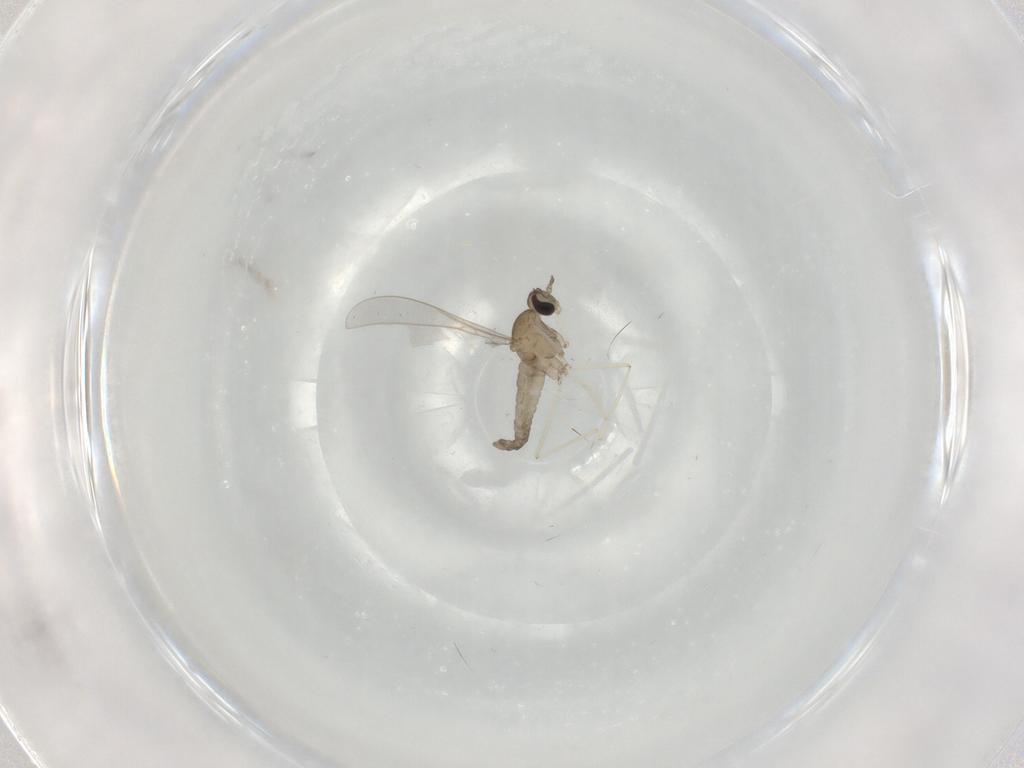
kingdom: Animalia
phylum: Arthropoda
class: Insecta
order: Diptera
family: Cecidomyiidae
